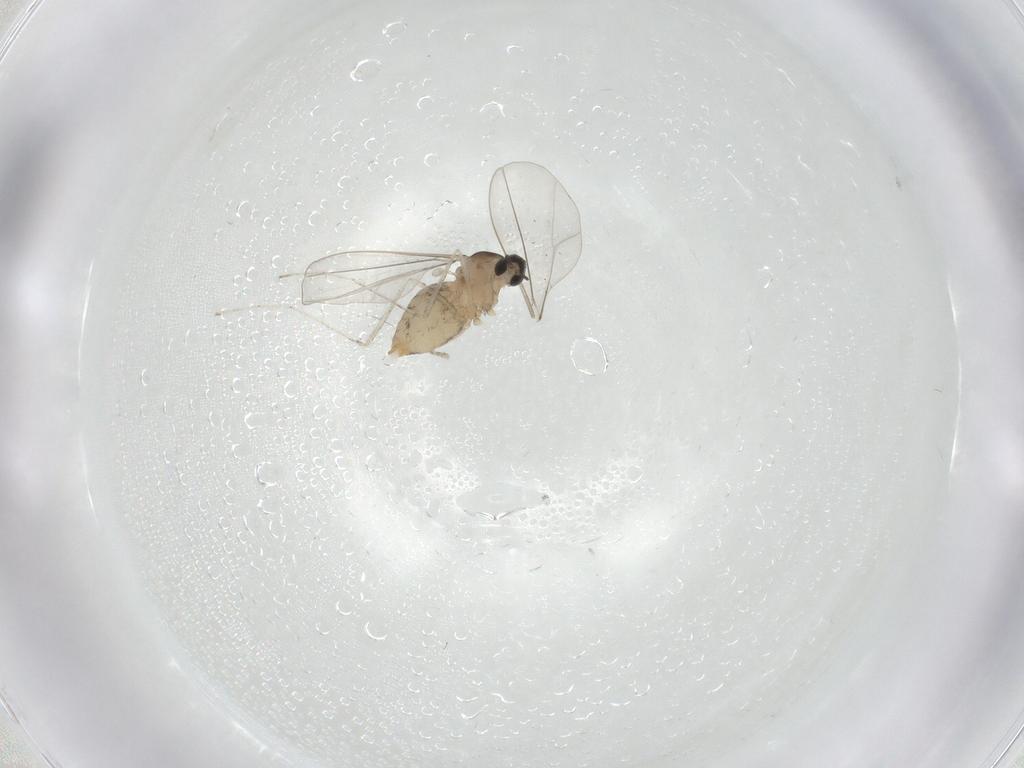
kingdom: Animalia
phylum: Arthropoda
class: Insecta
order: Diptera
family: Cecidomyiidae
